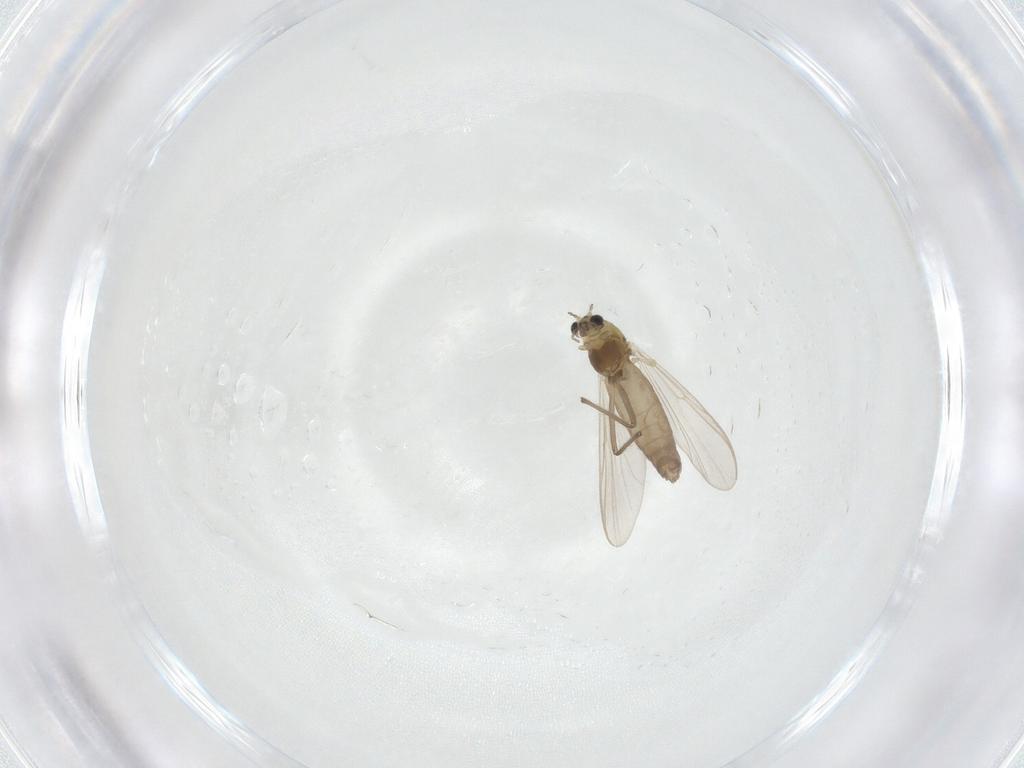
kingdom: Animalia
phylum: Arthropoda
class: Insecta
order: Diptera
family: Chironomidae
